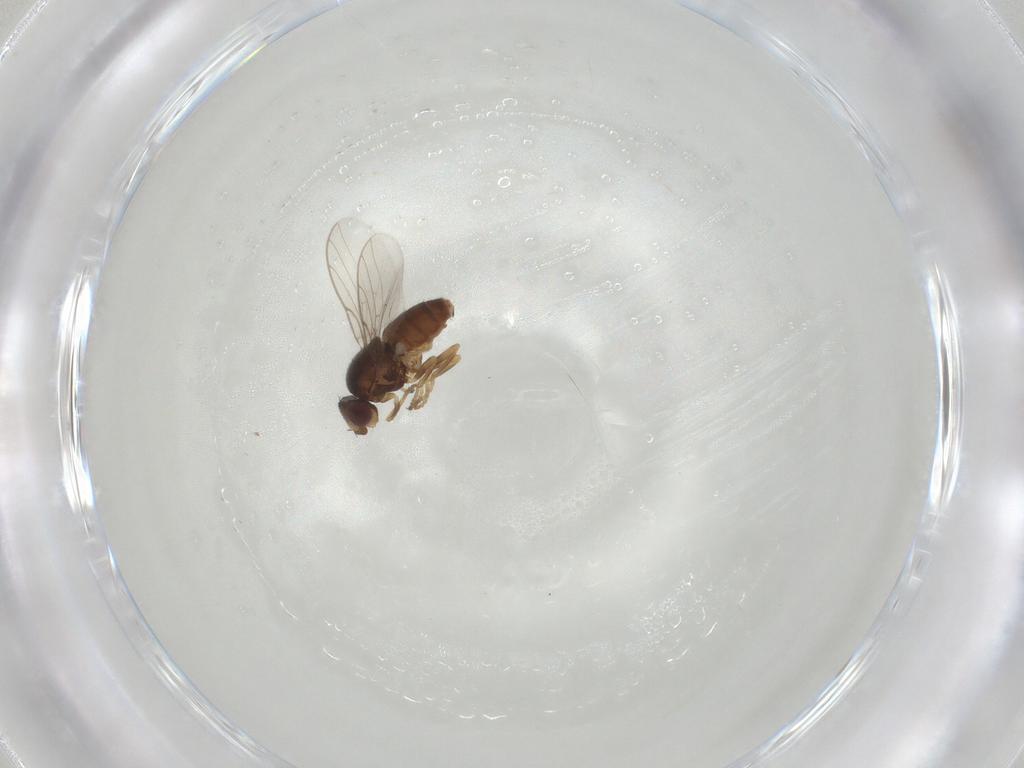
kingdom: Animalia
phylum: Arthropoda
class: Insecta
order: Diptera
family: Chloropidae
